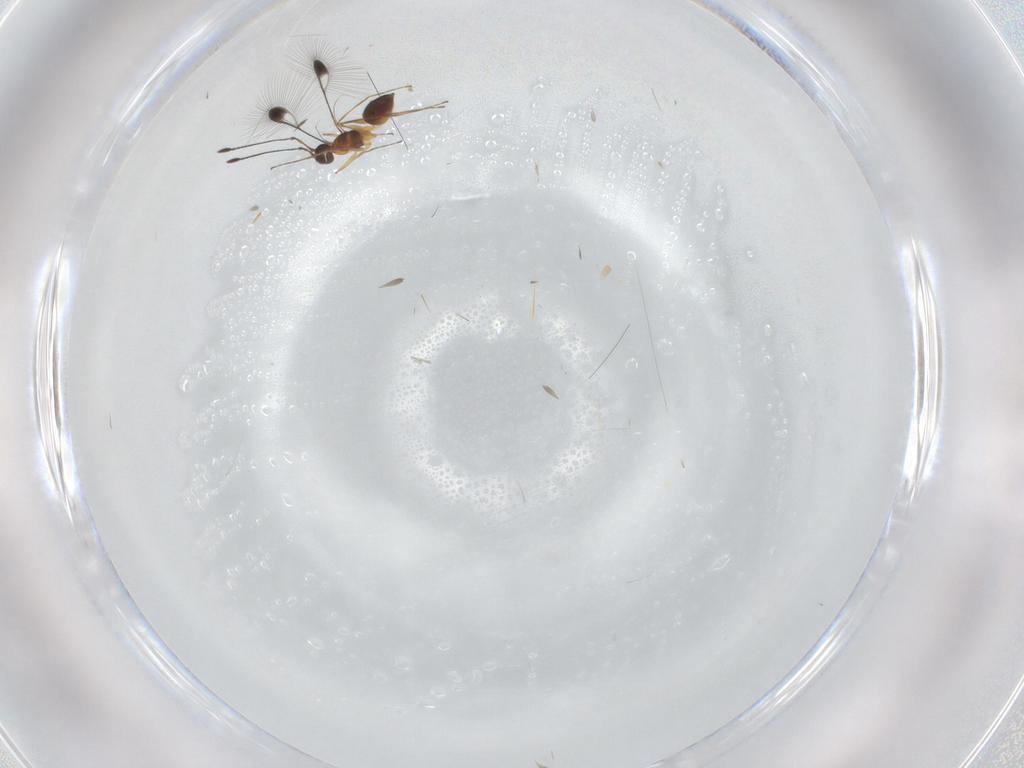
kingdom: Animalia
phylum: Arthropoda
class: Insecta
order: Hymenoptera
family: Mymaridae
